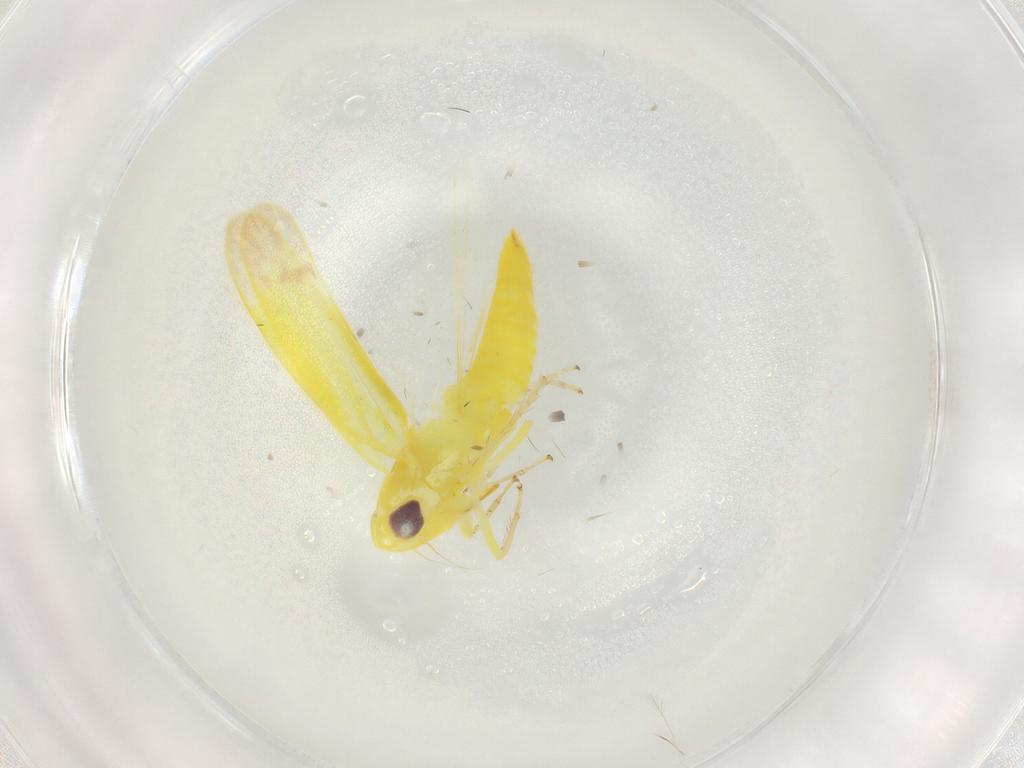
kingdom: Animalia
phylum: Arthropoda
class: Insecta
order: Hemiptera
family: Cicadellidae
